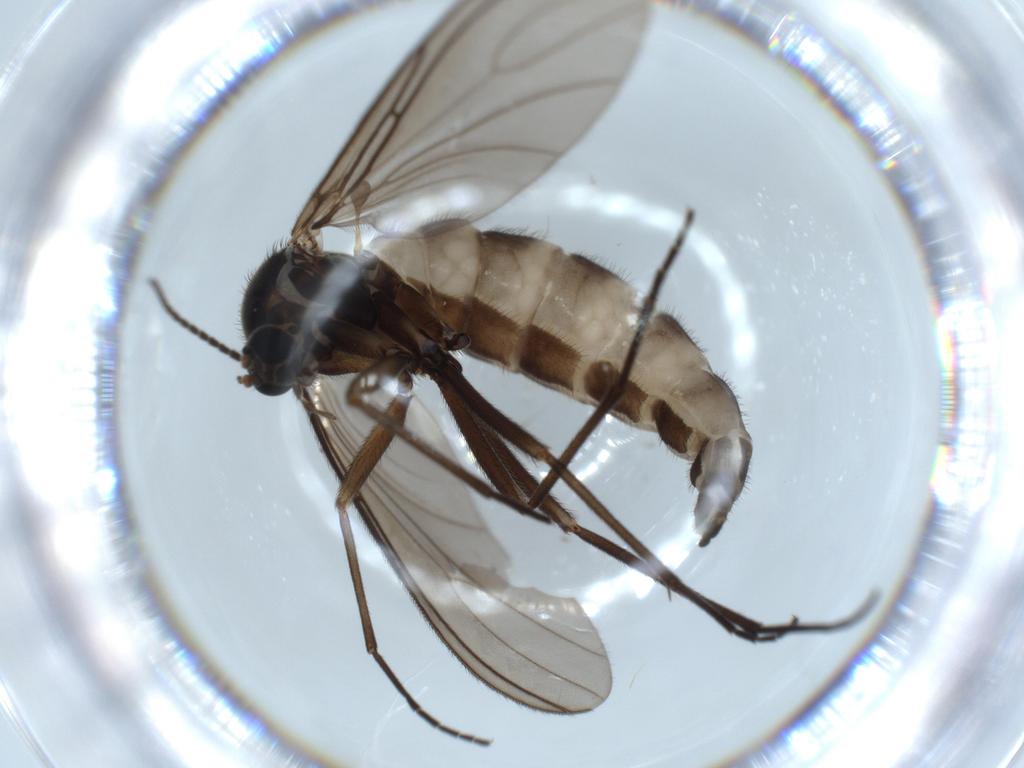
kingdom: Animalia
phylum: Arthropoda
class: Insecta
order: Diptera
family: Sciaridae
